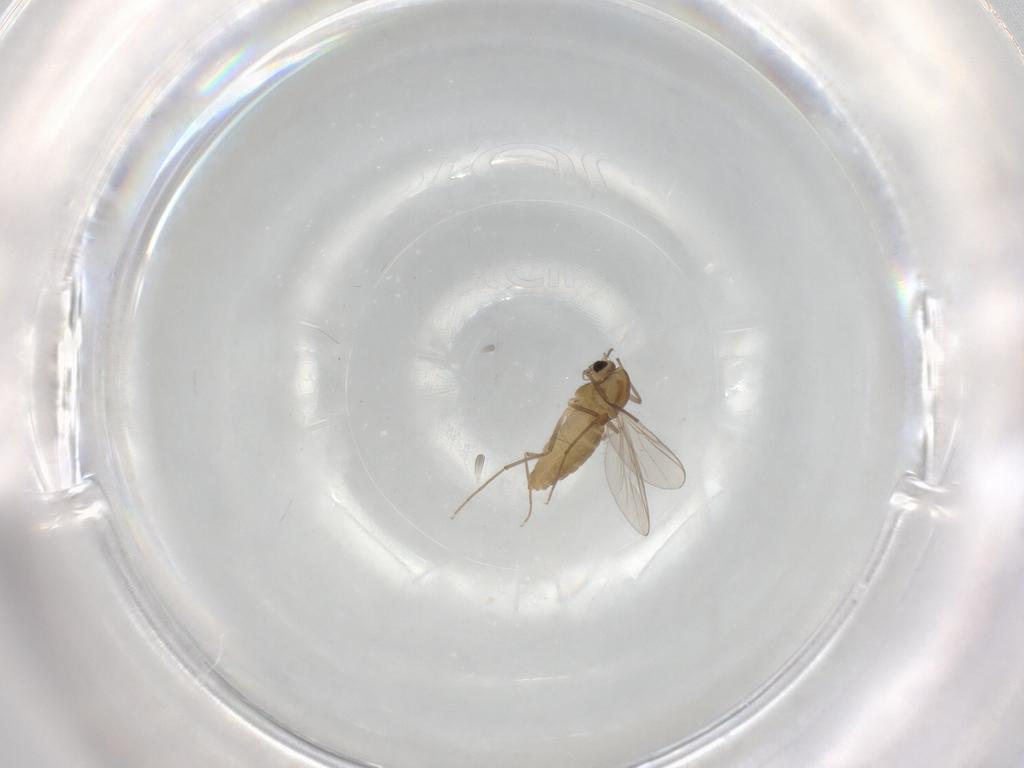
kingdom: Animalia
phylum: Arthropoda
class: Insecta
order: Diptera
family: Chironomidae
